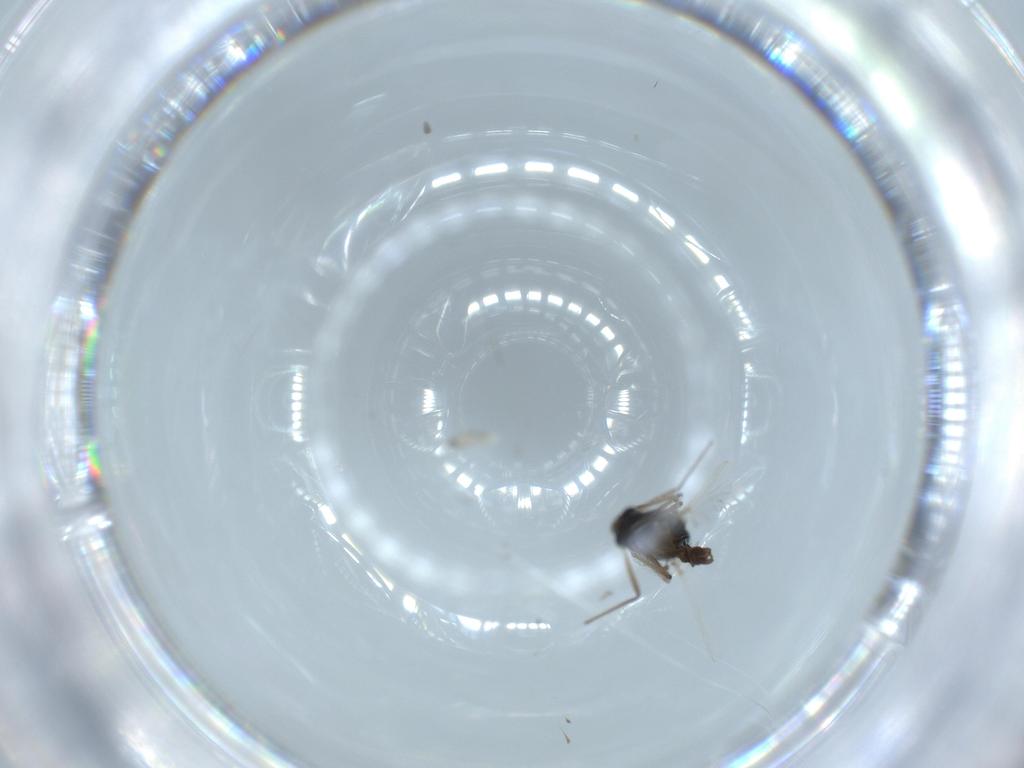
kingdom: Animalia
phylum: Arthropoda
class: Insecta
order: Diptera
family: Chironomidae
